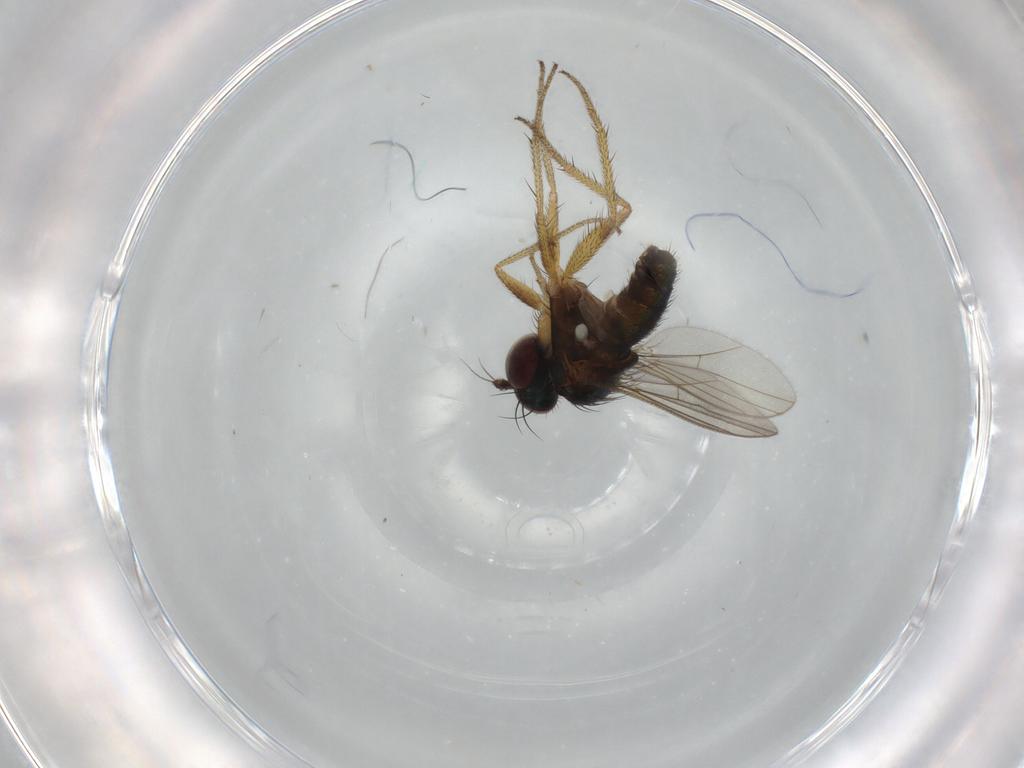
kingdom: Animalia
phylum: Arthropoda
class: Insecta
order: Diptera
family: Dolichopodidae
